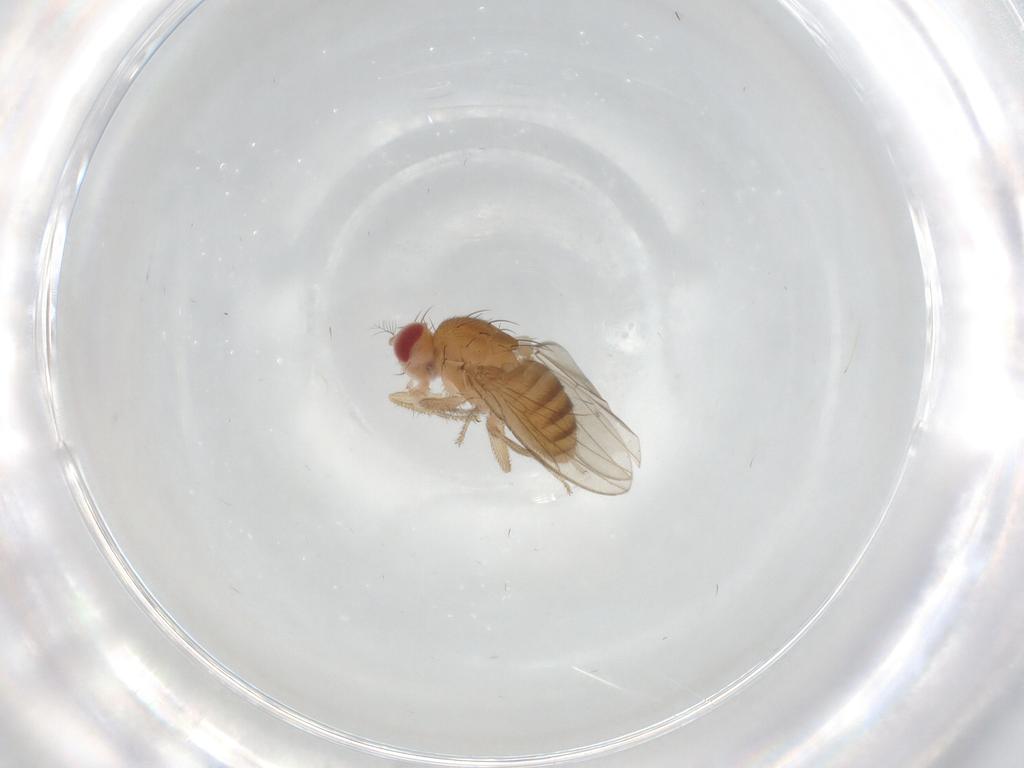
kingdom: Animalia
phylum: Arthropoda
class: Insecta
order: Diptera
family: Drosophilidae
